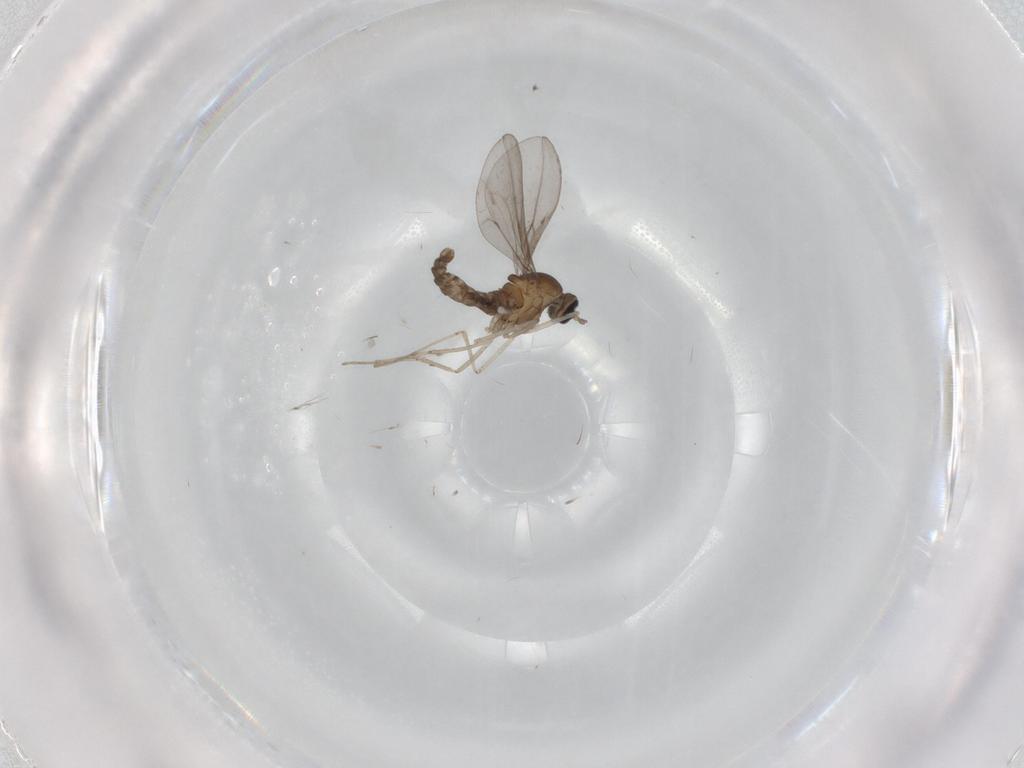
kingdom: Animalia
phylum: Arthropoda
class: Insecta
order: Diptera
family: Cecidomyiidae
